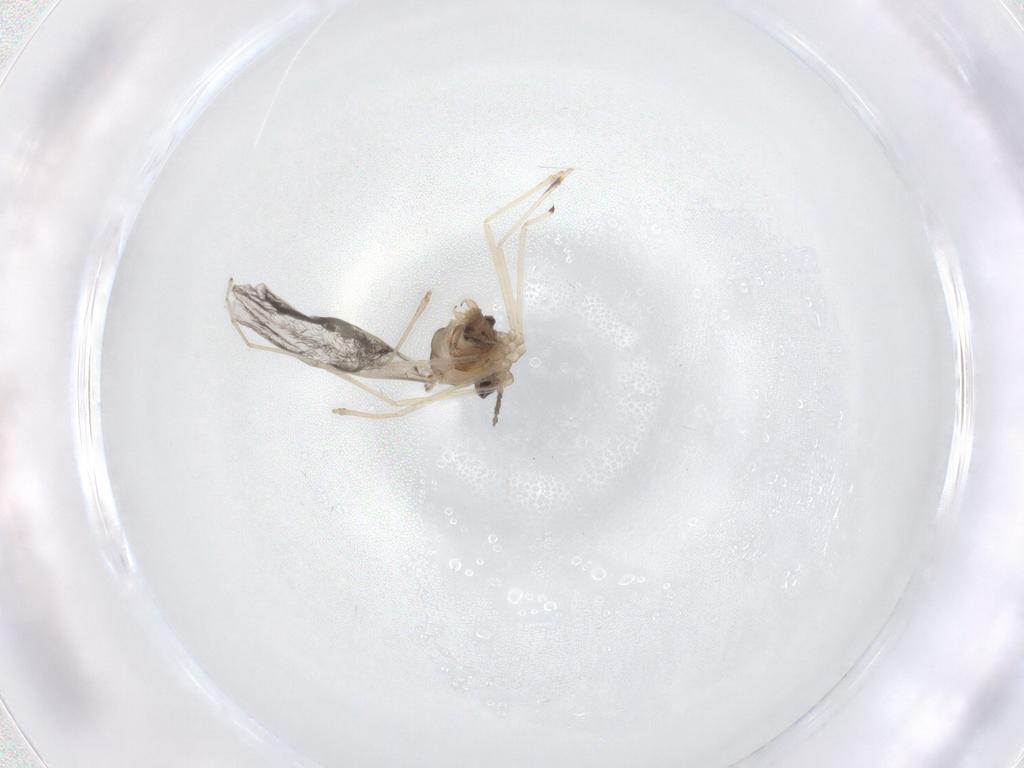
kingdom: Animalia
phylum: Arthropoda
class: Insecta
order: Diptera
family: Cecidomyiidae
